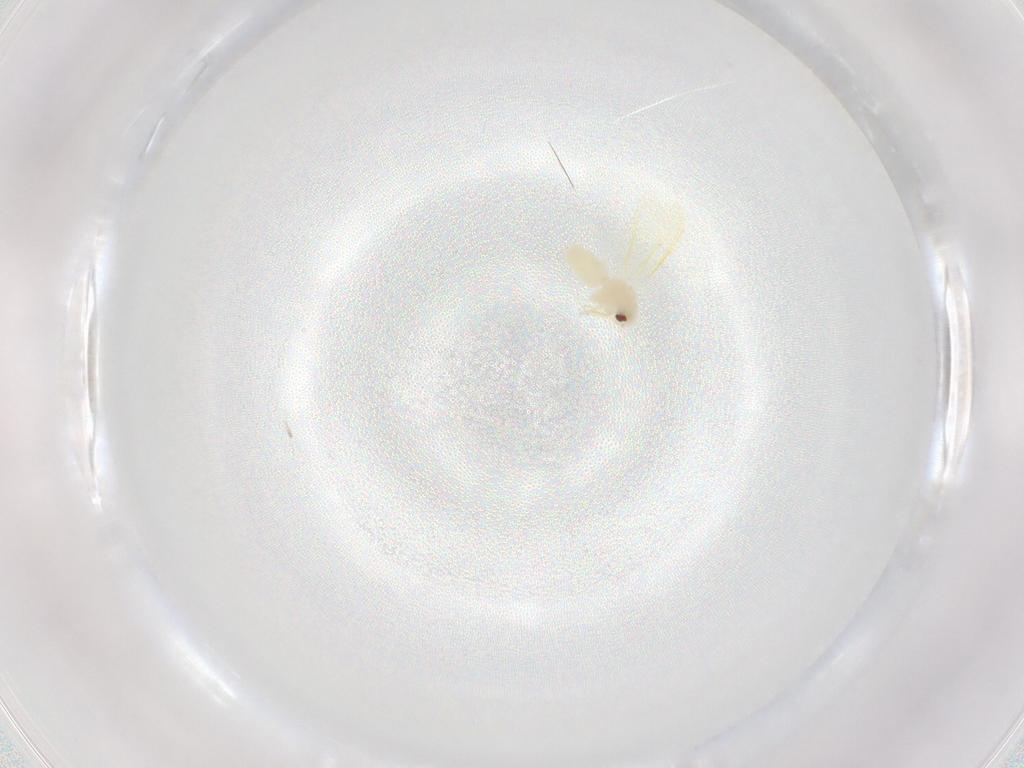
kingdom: Animalia
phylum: Arthropoda
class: Insecta
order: Hemiptera
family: Aleyrodidae
